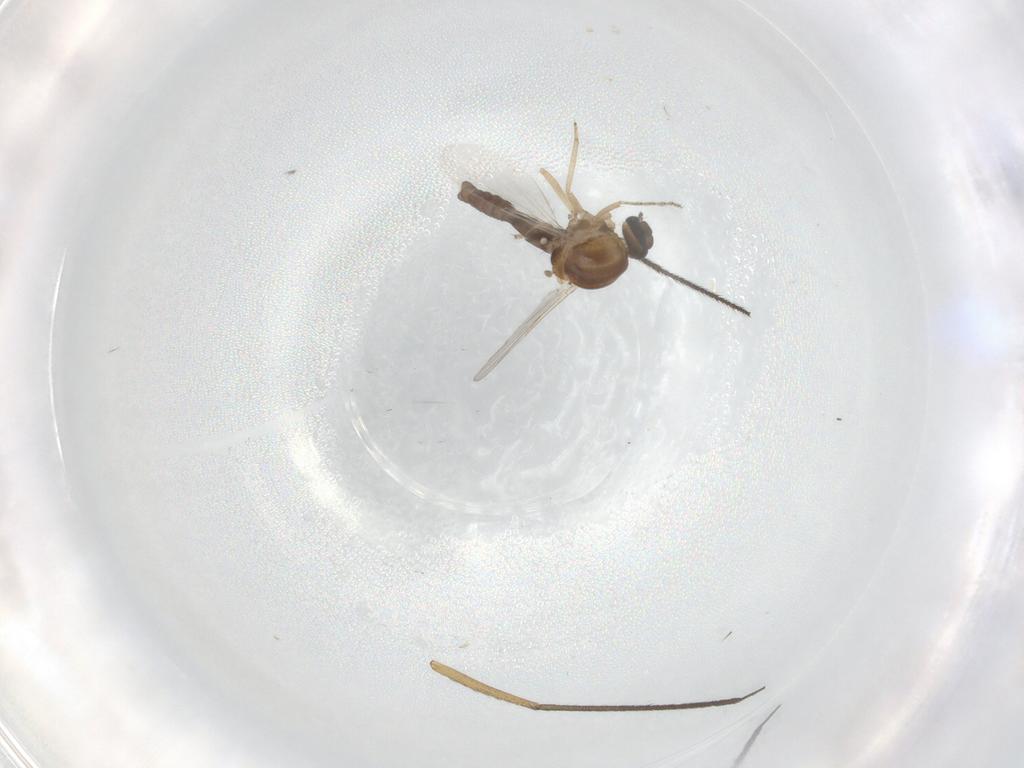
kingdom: Animalia
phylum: Arthropoda
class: Insecta
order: Diptera
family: Ditomyiidae
